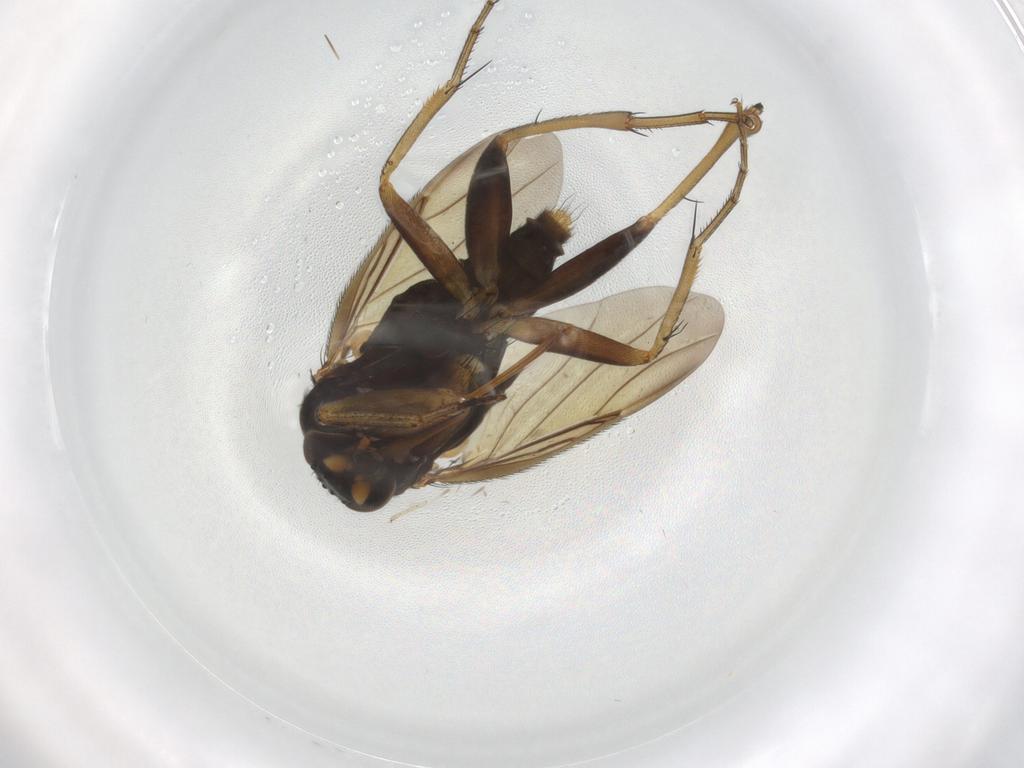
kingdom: Animalia
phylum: Arthropoda
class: Insecta
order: Diptera
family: Phoridae
